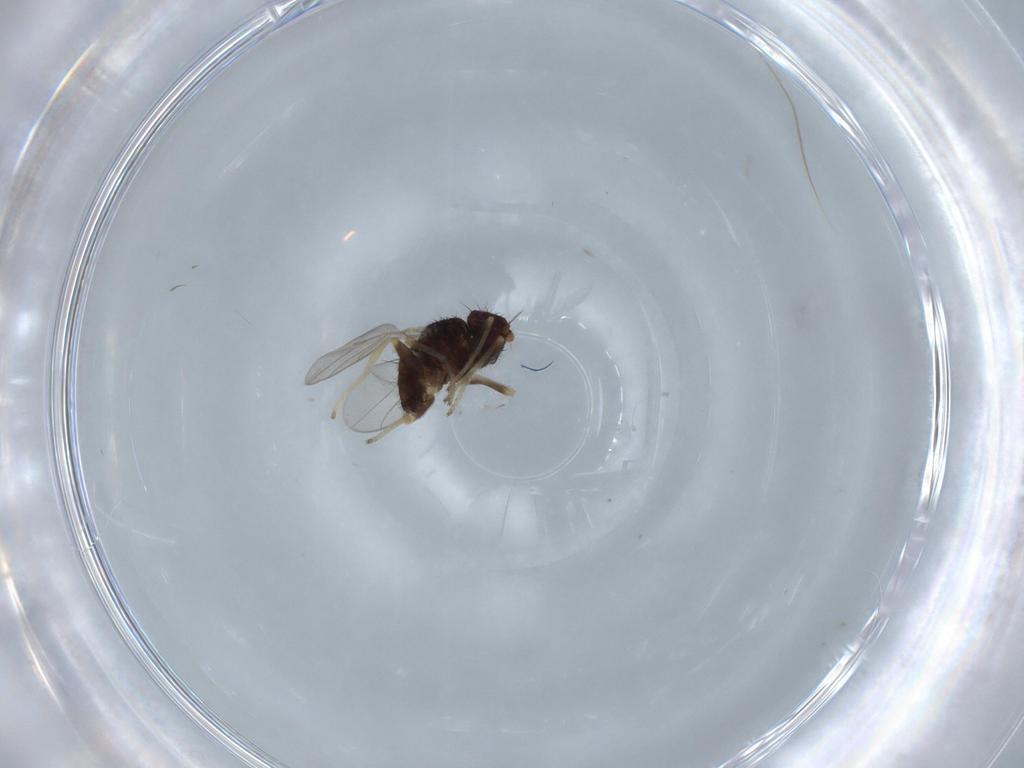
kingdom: Animalia
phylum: Arthropoda
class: Insecta
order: Diptera
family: Chloropidae
